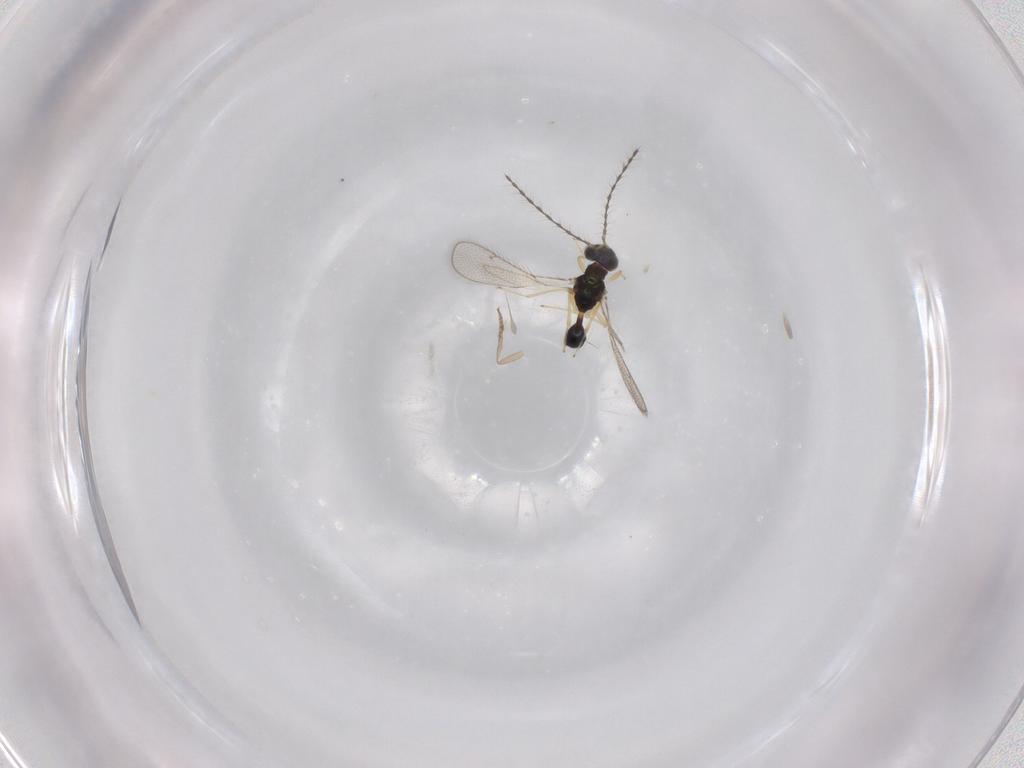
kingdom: Animalia
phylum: Arthropoda
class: Insecta
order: Hymenoptera
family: Diparidae
